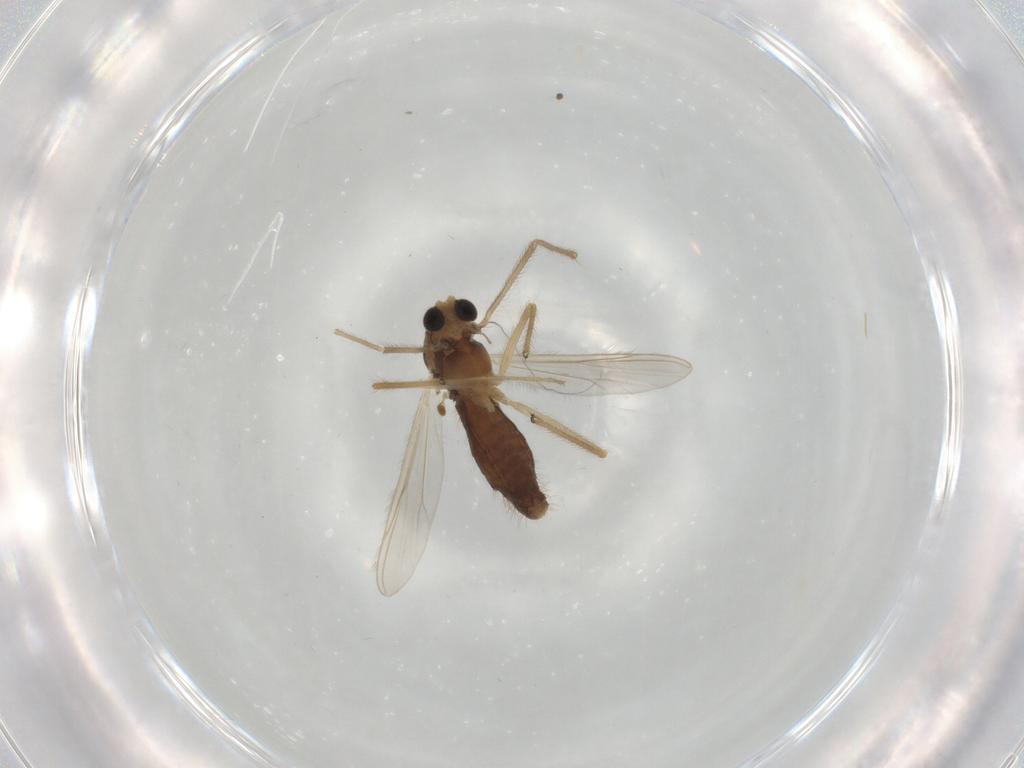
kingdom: Animalia
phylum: Arthropoda
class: Insecta
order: Diptera
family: Chironomidae
